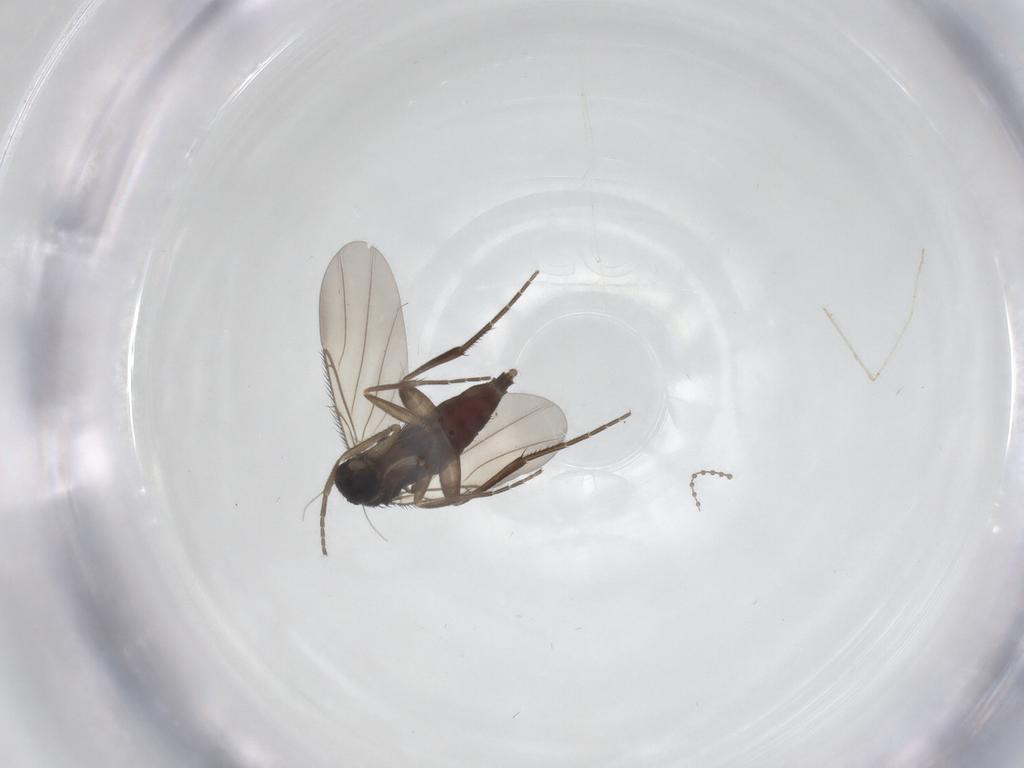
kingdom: Animalia
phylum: Arthropoda
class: Insecta
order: Diptera
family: Phoridae
